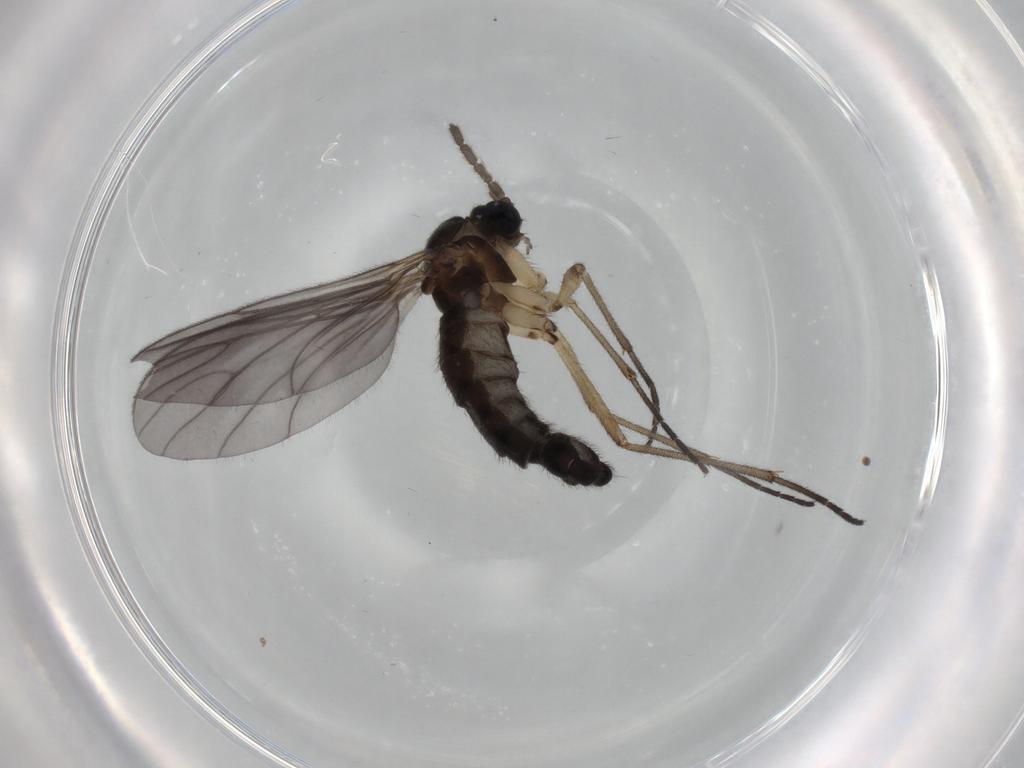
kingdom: Animalia
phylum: Arthropoda
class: Insecta
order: Diptera
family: Sciaridae
